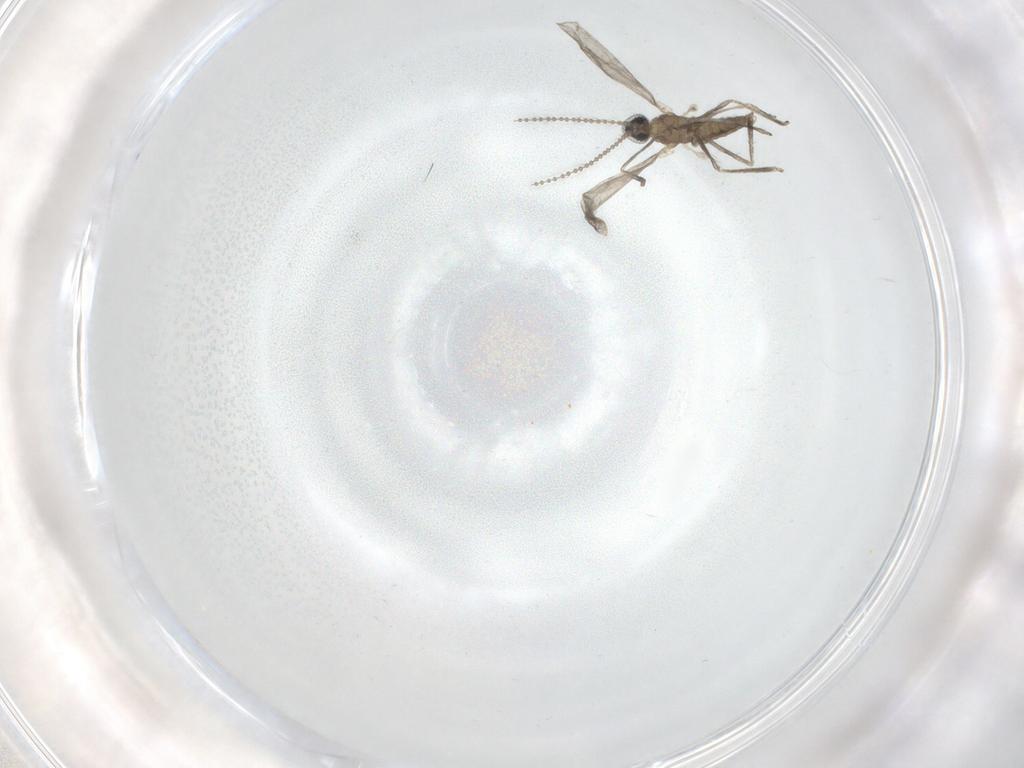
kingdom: Animalia
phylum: Arthropoda
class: Insecta
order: Diptera
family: Cecidomyiidae
